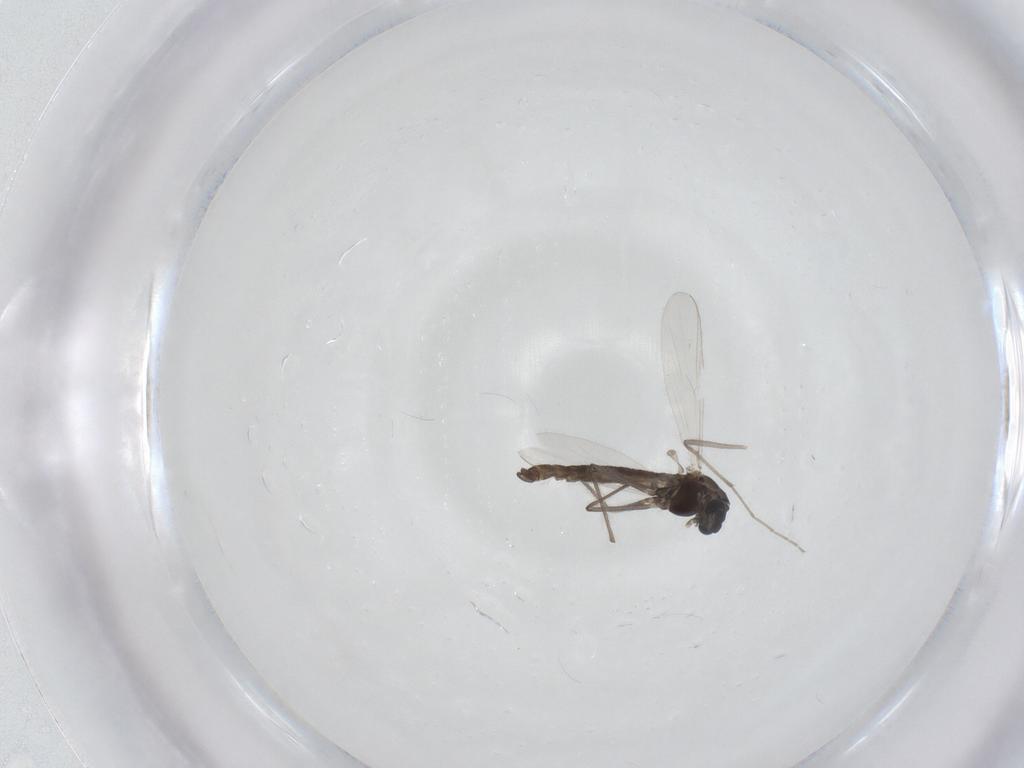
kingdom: Animalia
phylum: Arthropoda
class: Insecta
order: Diptera
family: Chironomidae
